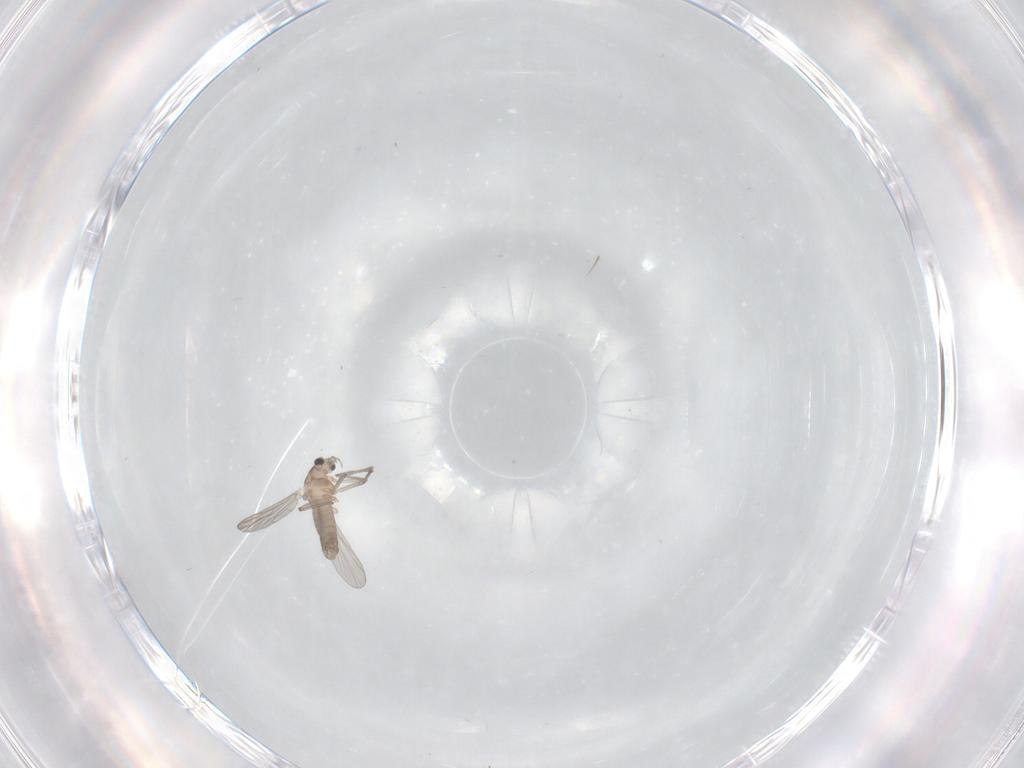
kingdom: Animalia
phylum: Arthropoda
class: Insecta
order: Diptera
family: Chironomidae
